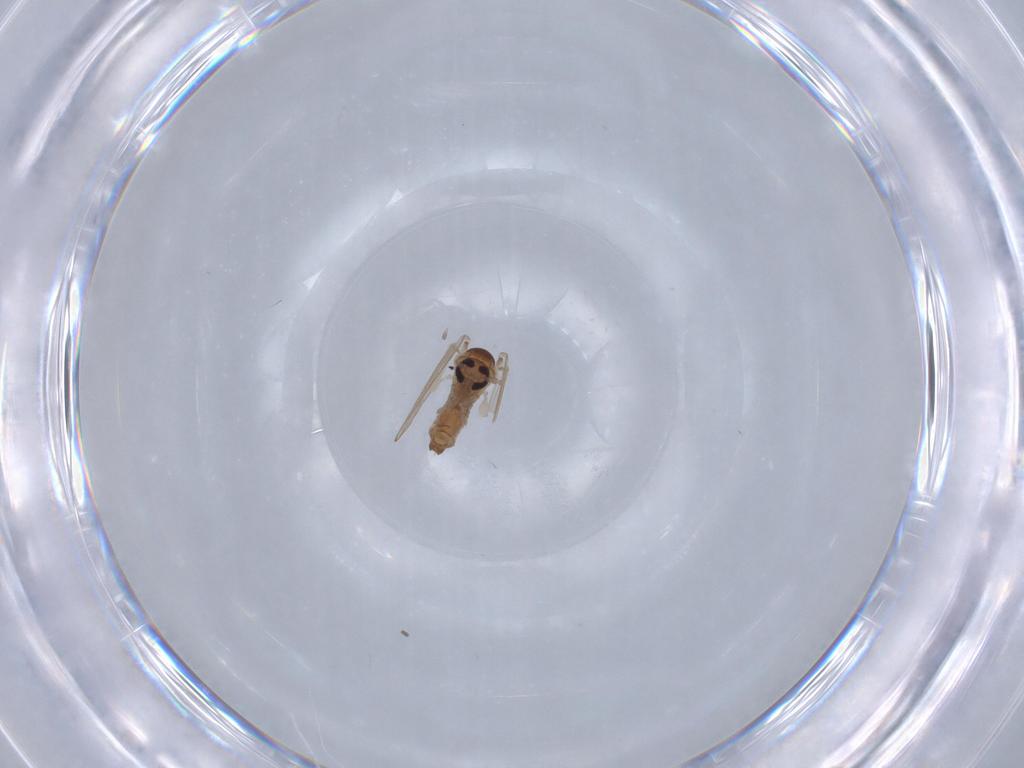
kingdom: Animalia
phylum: Arthropoda
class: Insecta
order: Diptera
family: Psychodidae
